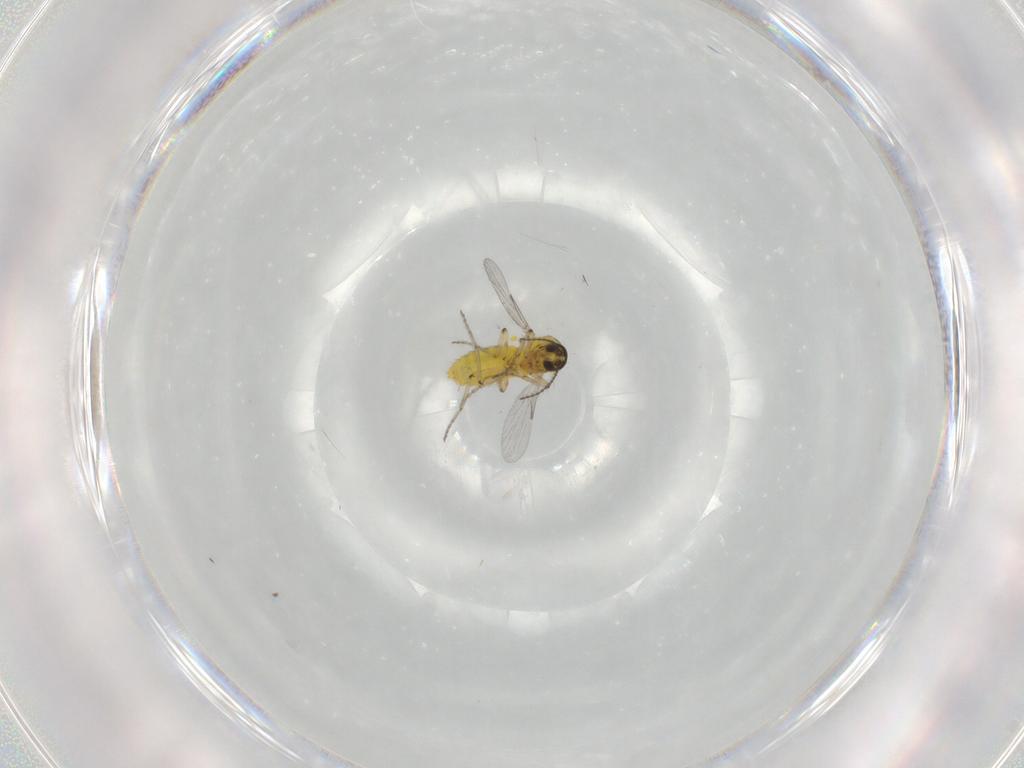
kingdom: Animalia
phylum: Arthropoda
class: Insecta
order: Diptera
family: Ceratopogonidae
